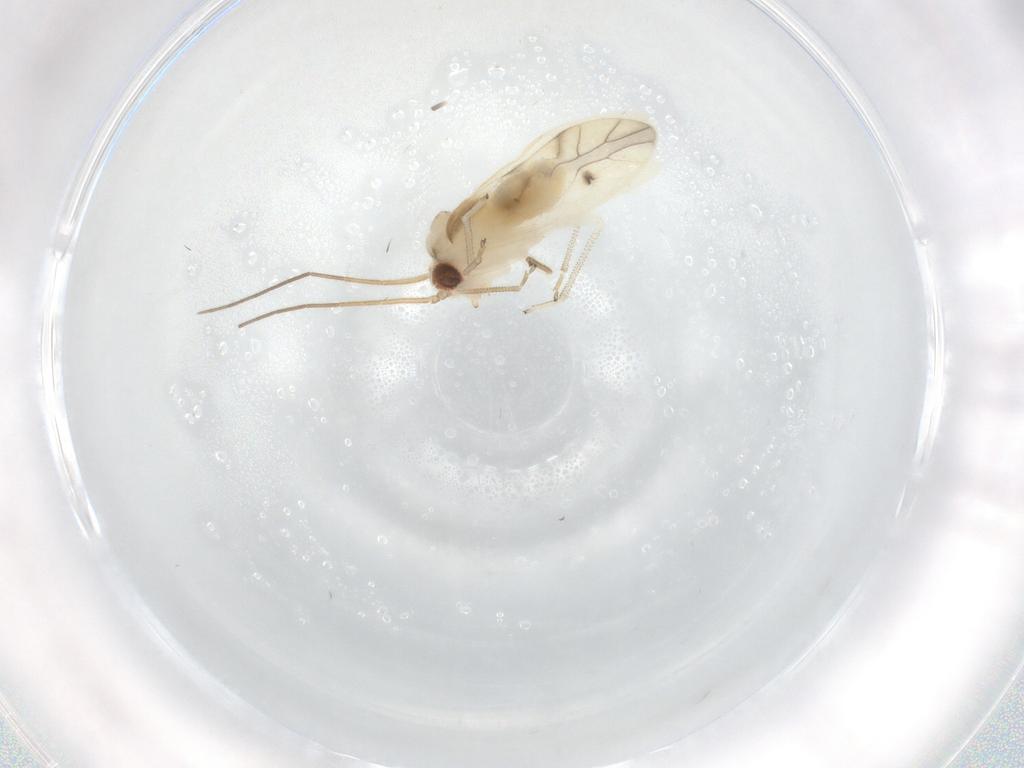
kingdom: Animalia
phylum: Arthropoda
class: Insecta
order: Psocodea
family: Caeciliusidae
